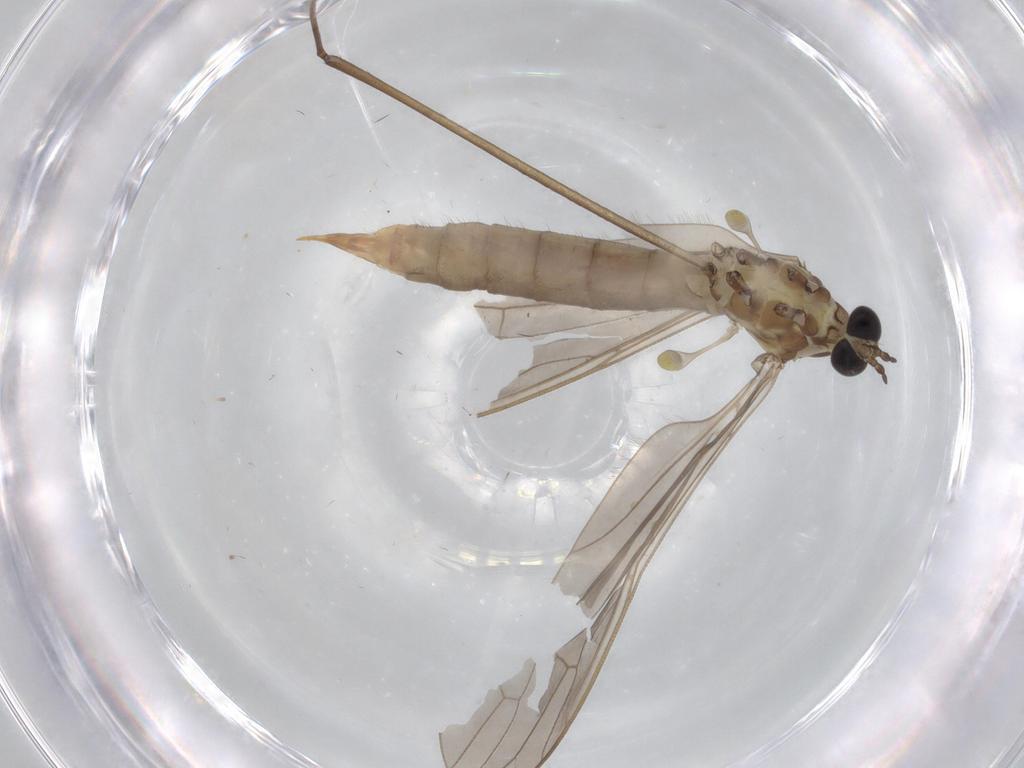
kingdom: Animalia
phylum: Arthropoda
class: Insecta
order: Diptera
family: Limoniidae
